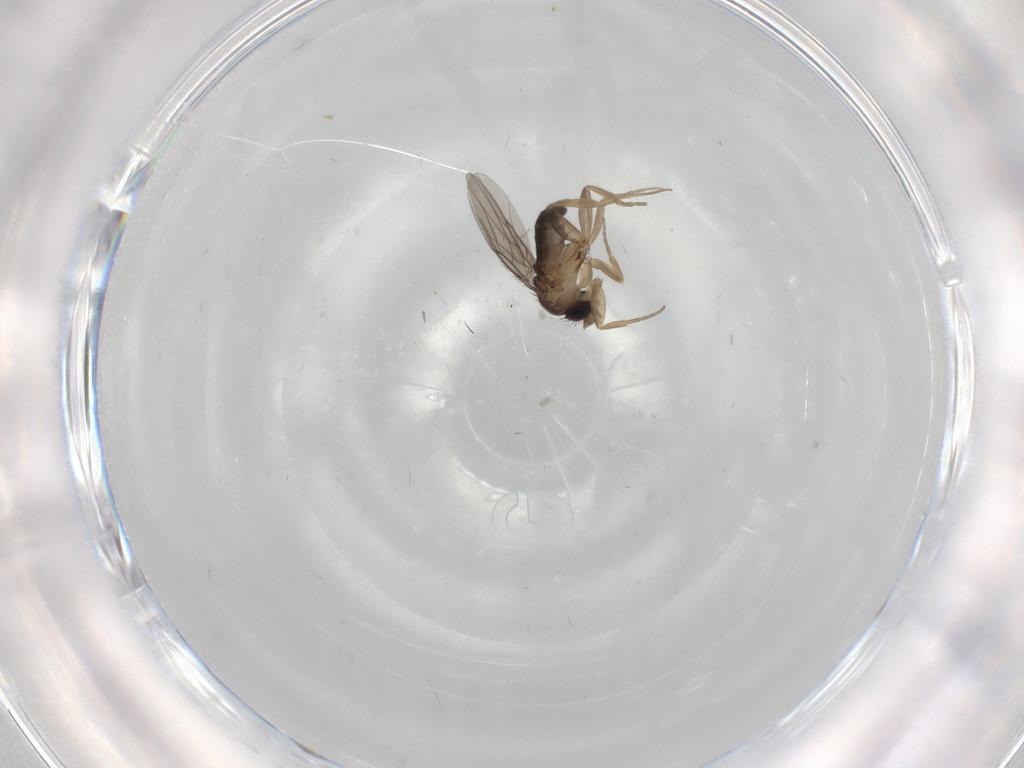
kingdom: Animalia
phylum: Arthropoda
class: Insecta
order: Diptera
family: Phoridae
